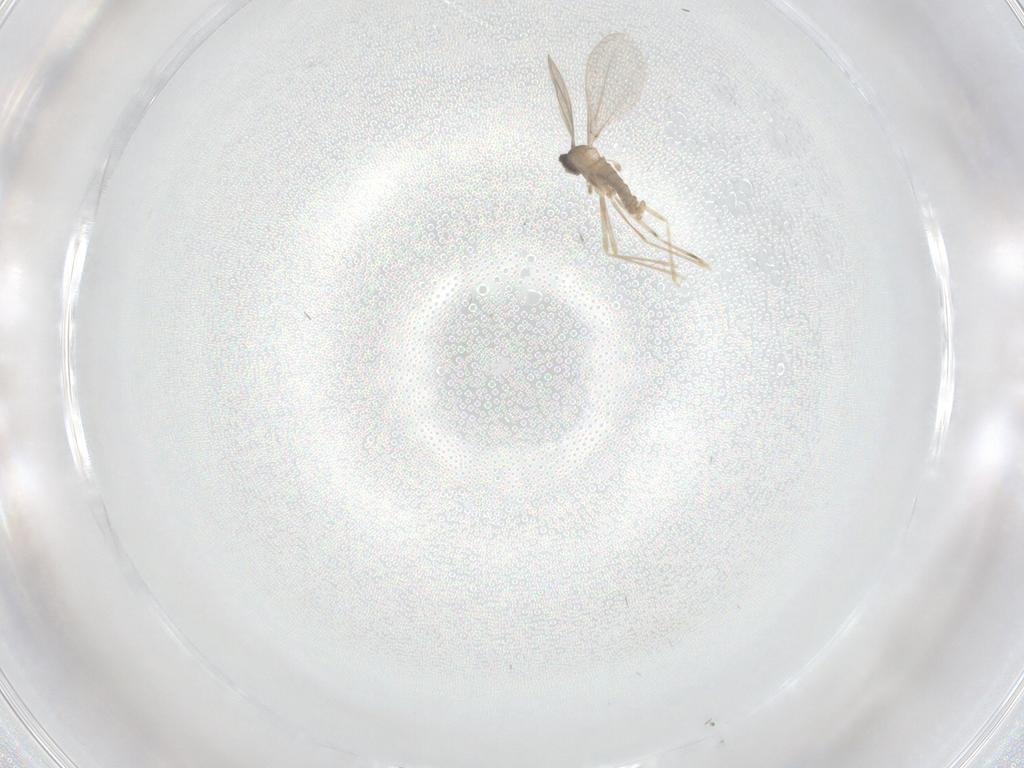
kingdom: Animalia
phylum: Arthropoda
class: Insecta
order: Diptera
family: Cecidomyiidae
